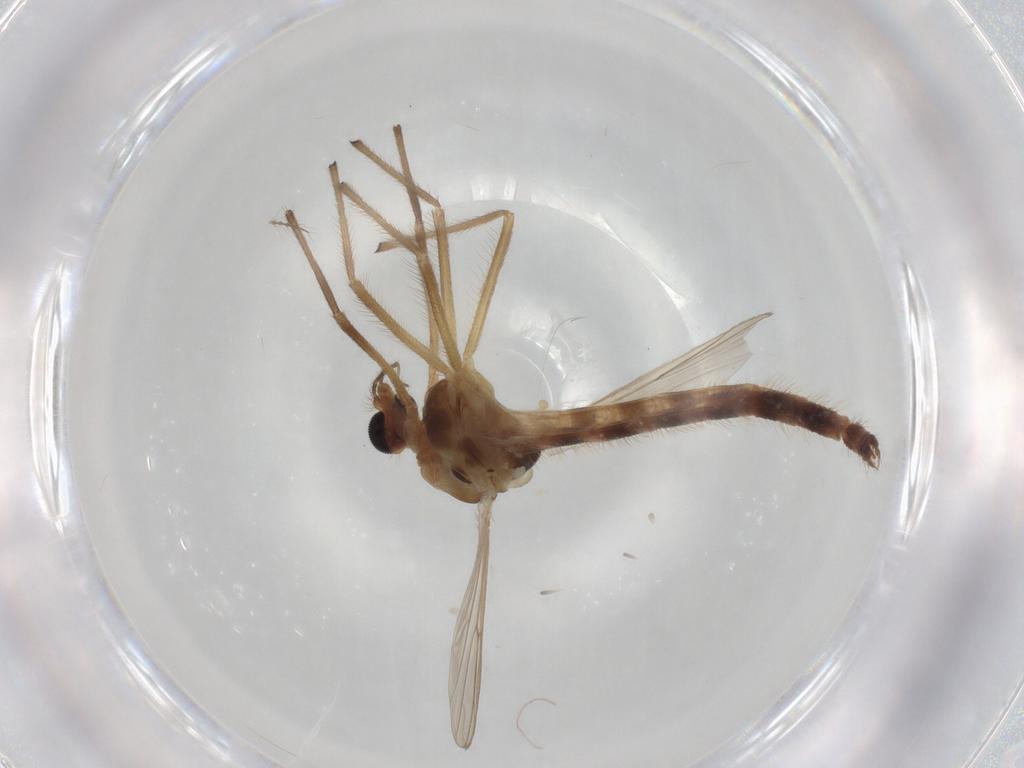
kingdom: Animalia
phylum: Arthropoda
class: Insecta
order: Diptera
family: Chironomidae
